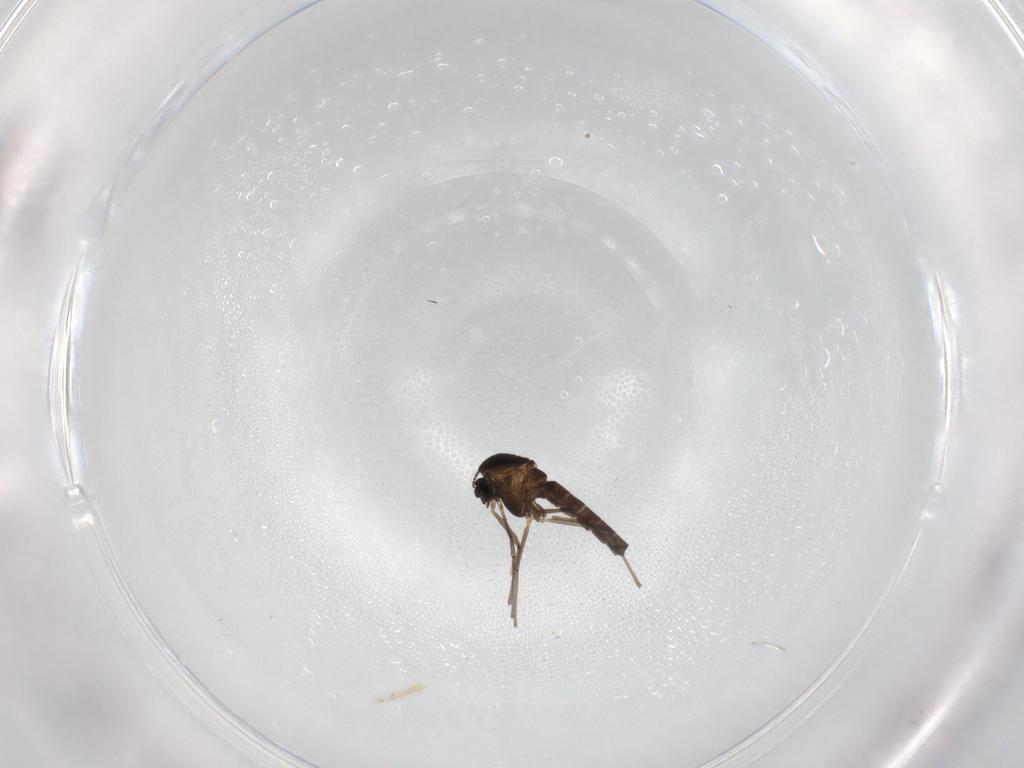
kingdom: Animalia
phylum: Arthropoda
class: Insecta
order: Diptera
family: Chironomidae
